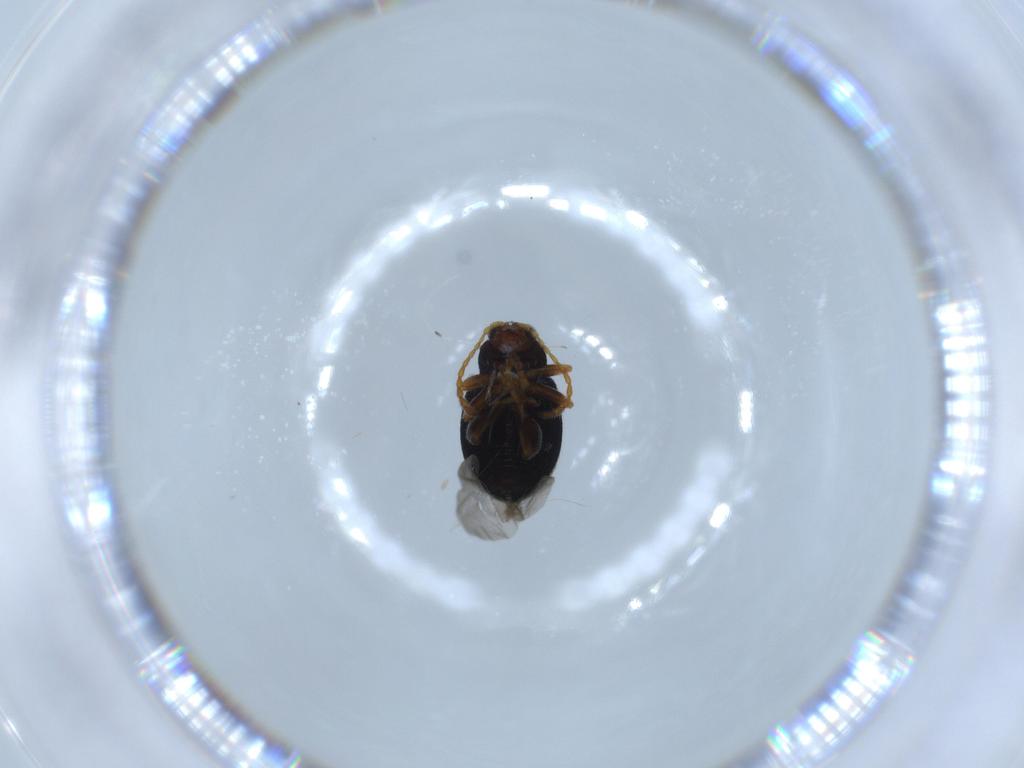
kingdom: Animalia
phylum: Arthropoda
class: Insecta
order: Coleoptera
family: Chrysomelidae
